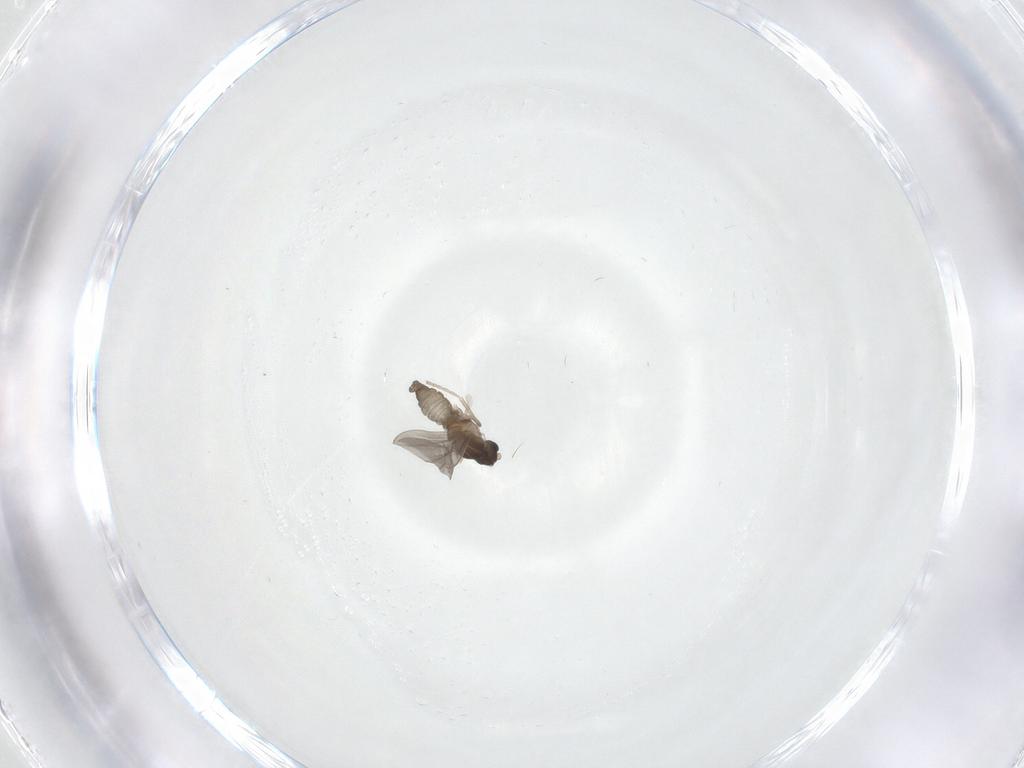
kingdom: Animalia
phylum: Arthropoda
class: Insecta
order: Diptera
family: Cecidomyiidae
